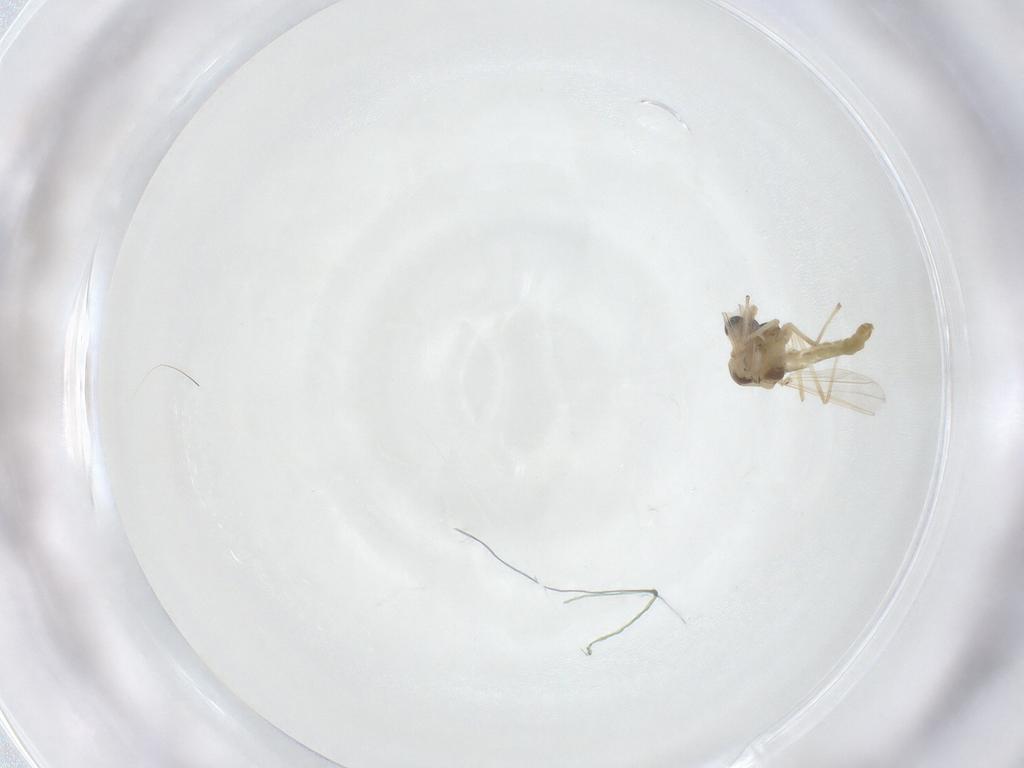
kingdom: Animalia
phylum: Arthropoda
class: Insecta
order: Diptera
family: Chironomidae
